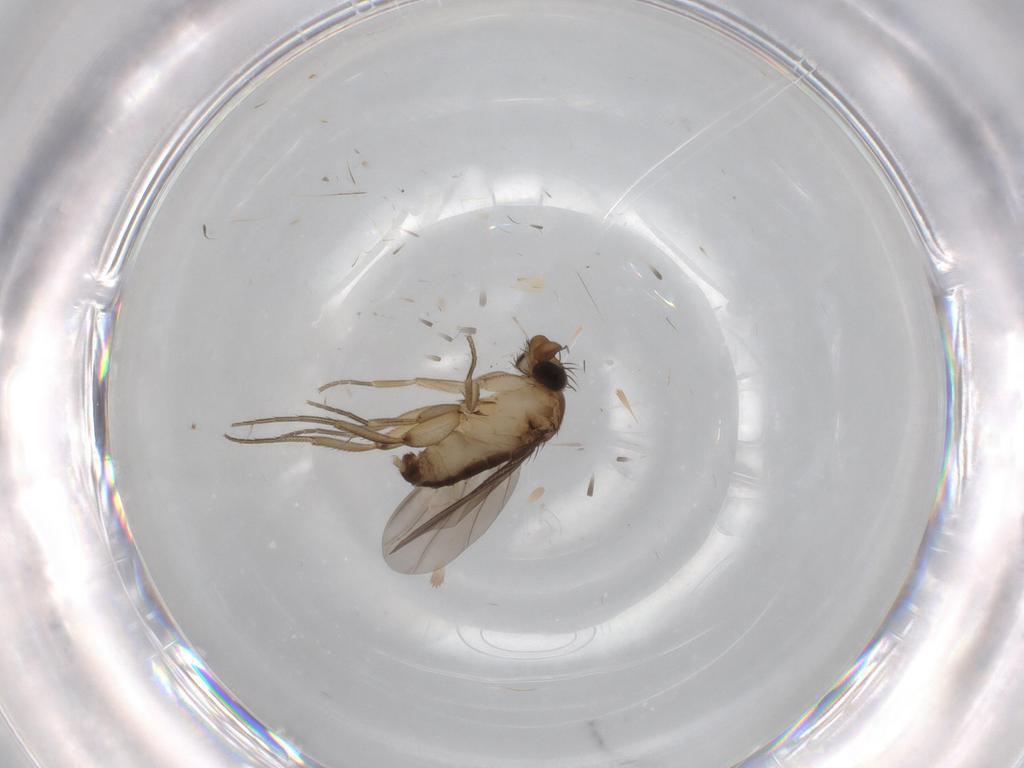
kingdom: Animalia
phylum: Arthropoda
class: Insecta
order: Diptera
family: Phoridae
